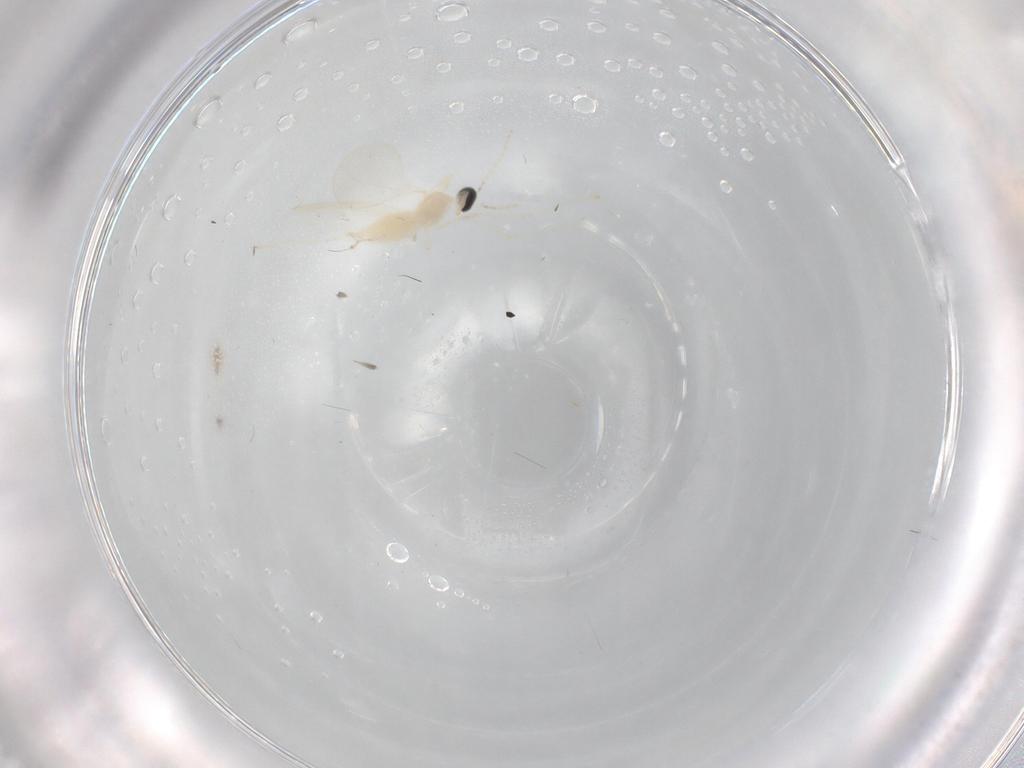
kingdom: Animalia
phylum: Arthropoda
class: Insecta
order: Diptera
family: Cecidomyiidae
